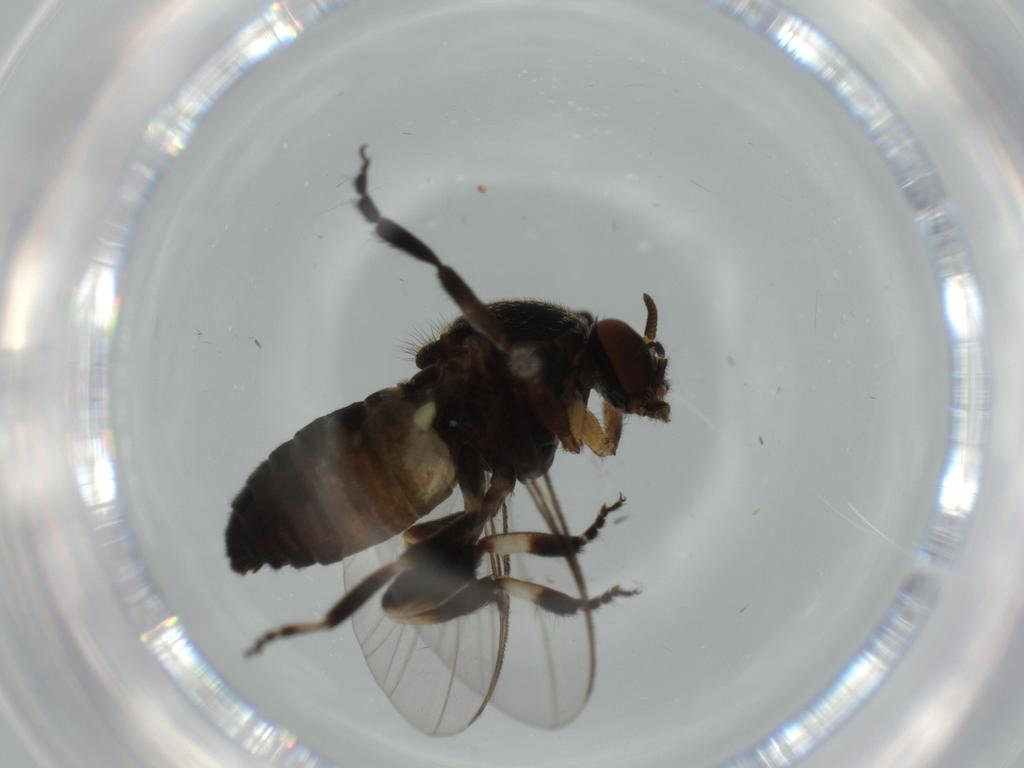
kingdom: Animalia
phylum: Arthropoda
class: Insecta
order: Diptera
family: Cecidomyiidae
